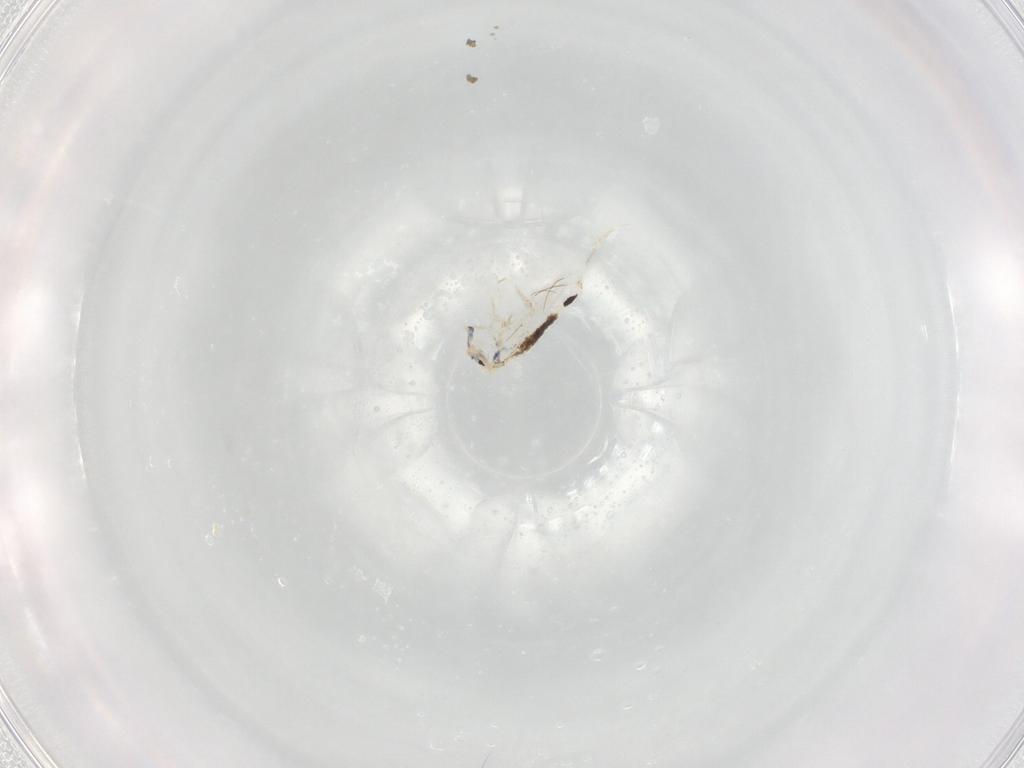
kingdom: Animalia
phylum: Arthropoda
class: Collembola
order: Entomobryomorpha
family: Entomobryidae
